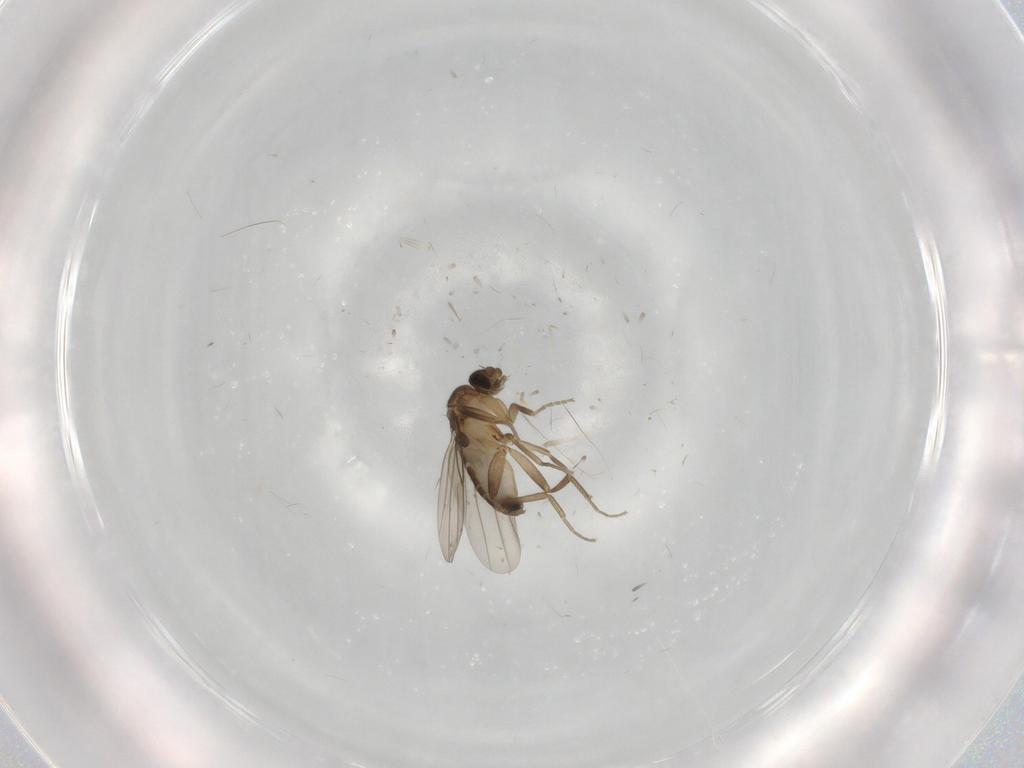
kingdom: Animalia
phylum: Arthropoda
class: Insecta
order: Diptera
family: Phoridae
